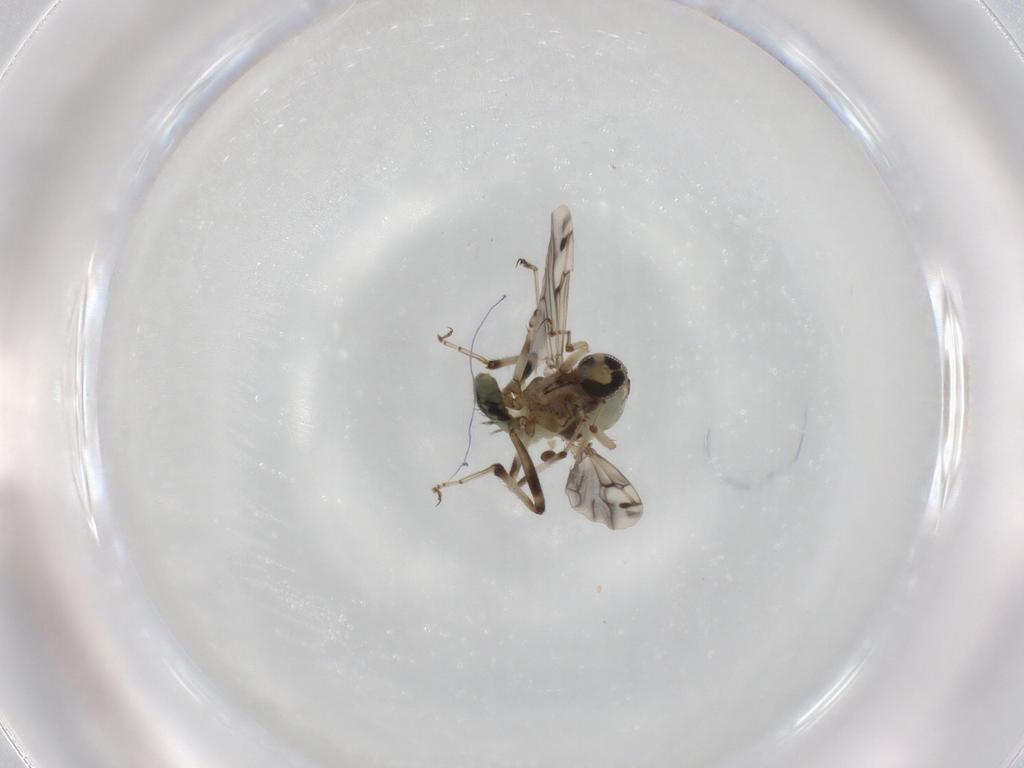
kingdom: Animalia
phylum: Arthropoda
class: Insecta
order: Diptera
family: Ceratopogonidae
